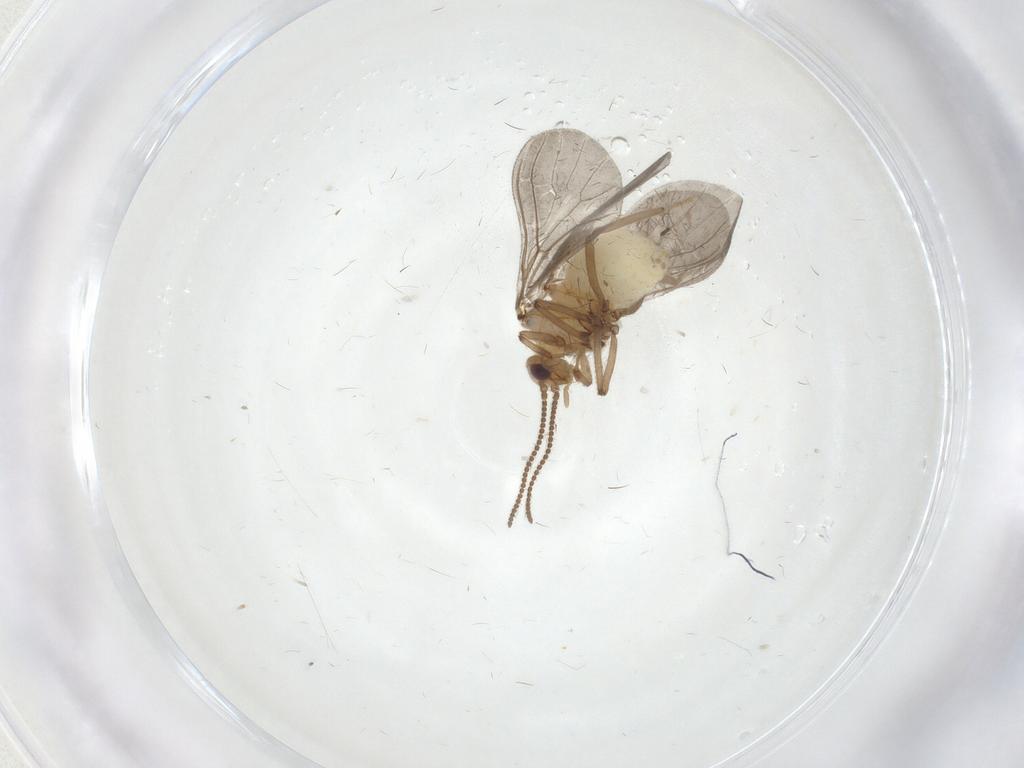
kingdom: Animalia
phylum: Arthropoda
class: Insecta
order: Neuroptera
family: Coniopterygidae
